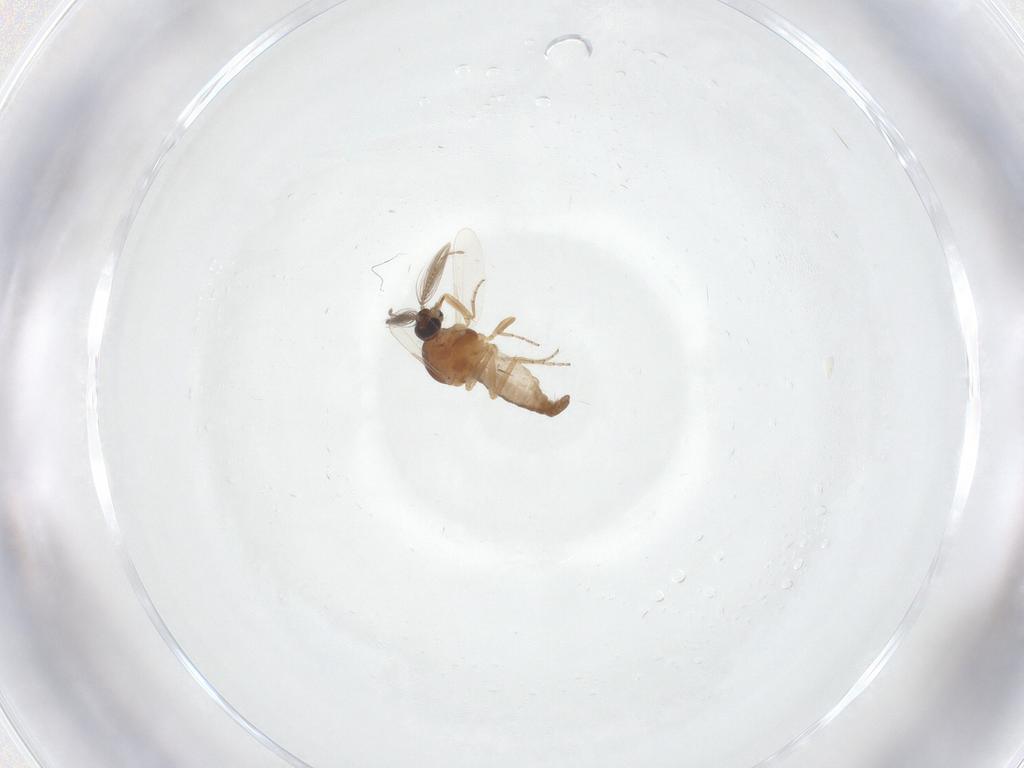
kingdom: Animalia
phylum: Arthropoda
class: Insecta
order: Diptera
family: Ceratopogonidae
